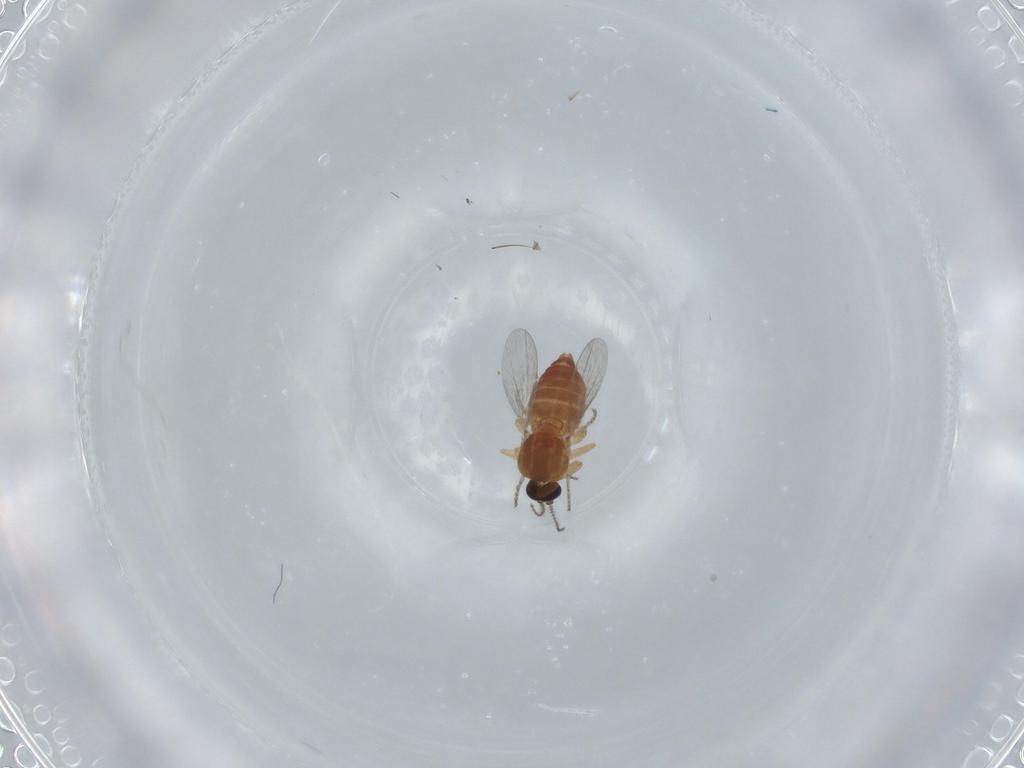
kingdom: Animalia
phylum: Arthropoda
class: Insecta
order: Diptera
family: Ceratopogonidae
